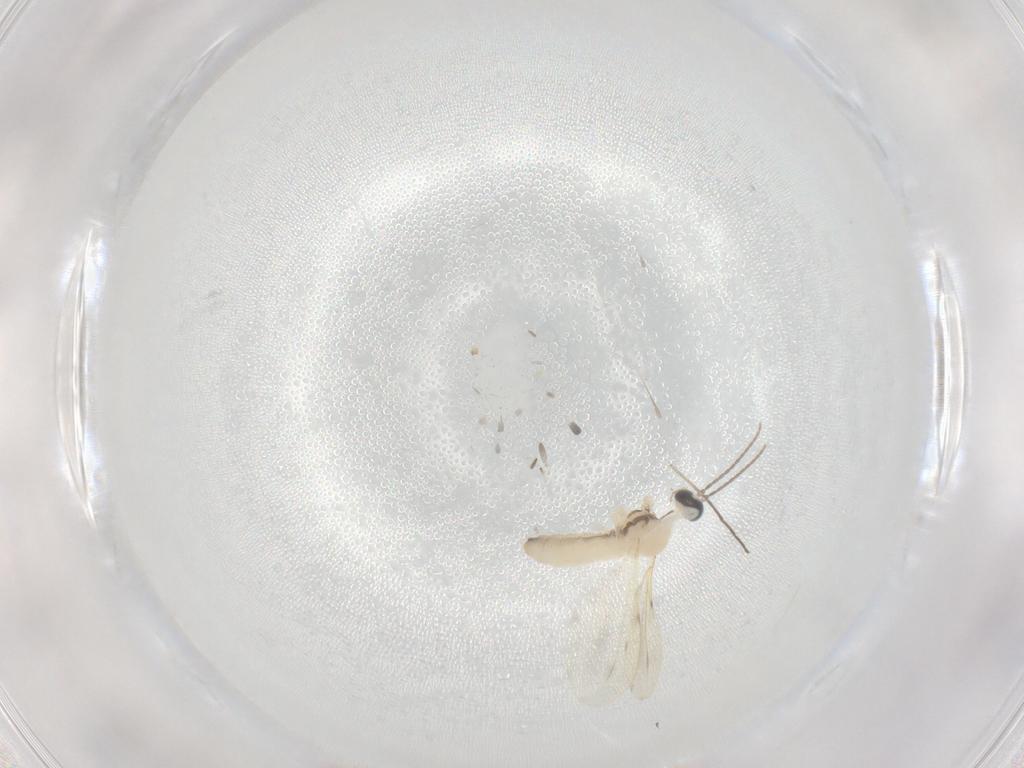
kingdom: Animalia
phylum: Arthropoda
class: Insecta
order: Diptera
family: Cecidomyiidae
